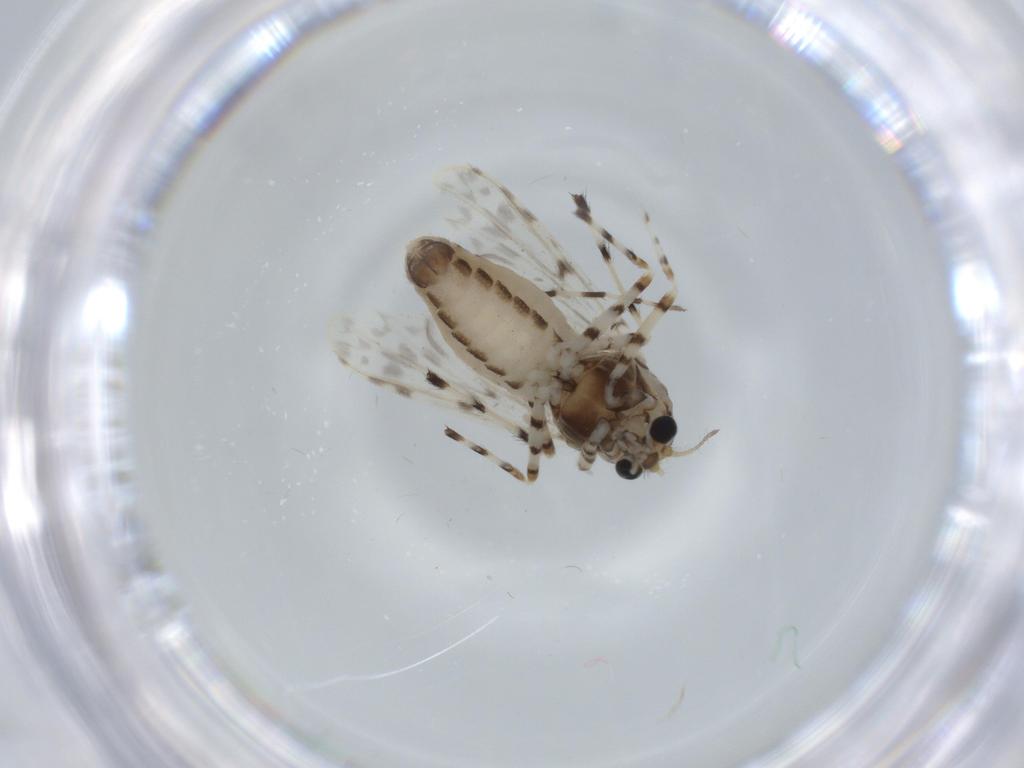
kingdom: Animalia
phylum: Arthropoda
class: Insecta
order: Diptera
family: Chironomidae
